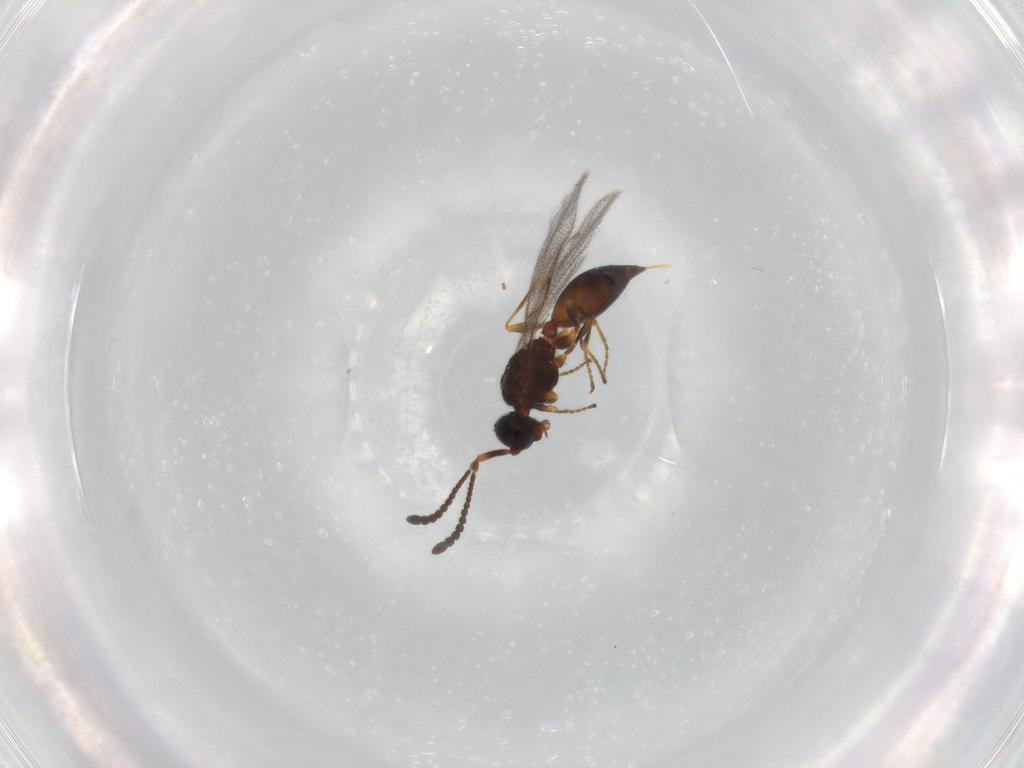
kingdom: Animalia
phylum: Arthropoda
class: Insecta
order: Hymenoptera
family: Diapriidae
